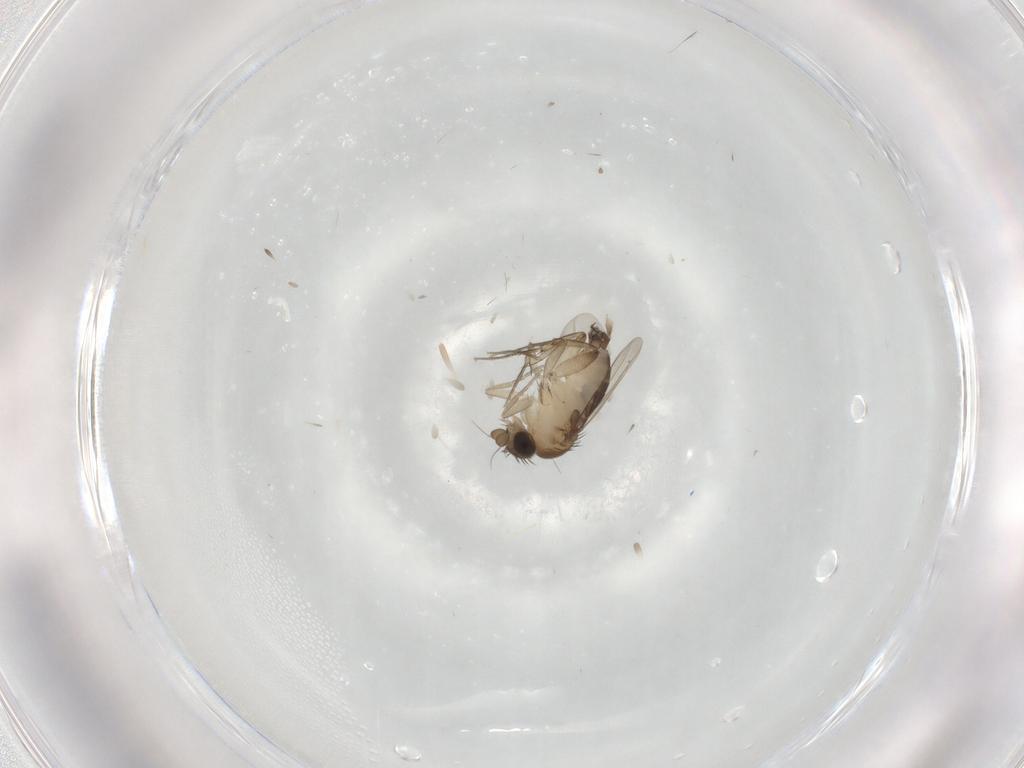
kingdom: Animalia
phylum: Arthropoda
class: Insecta
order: Diptera
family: Phoridae
